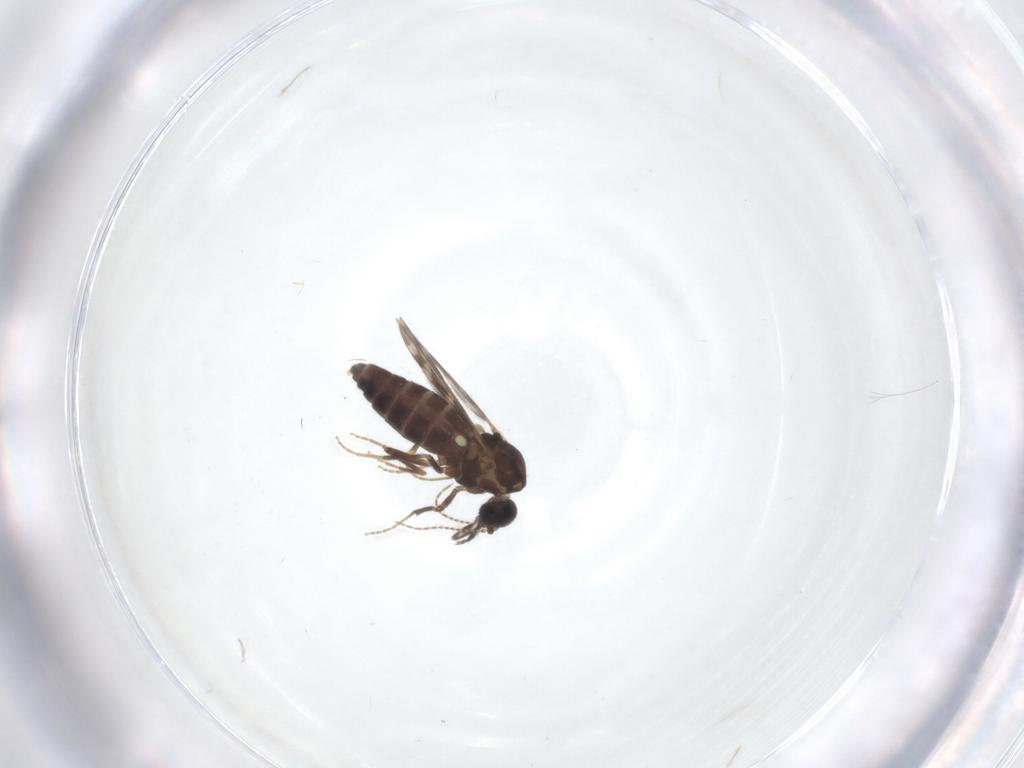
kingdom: Animalia
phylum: Arthropoda
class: Insecta
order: Diptera
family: Ceratopogonidae
